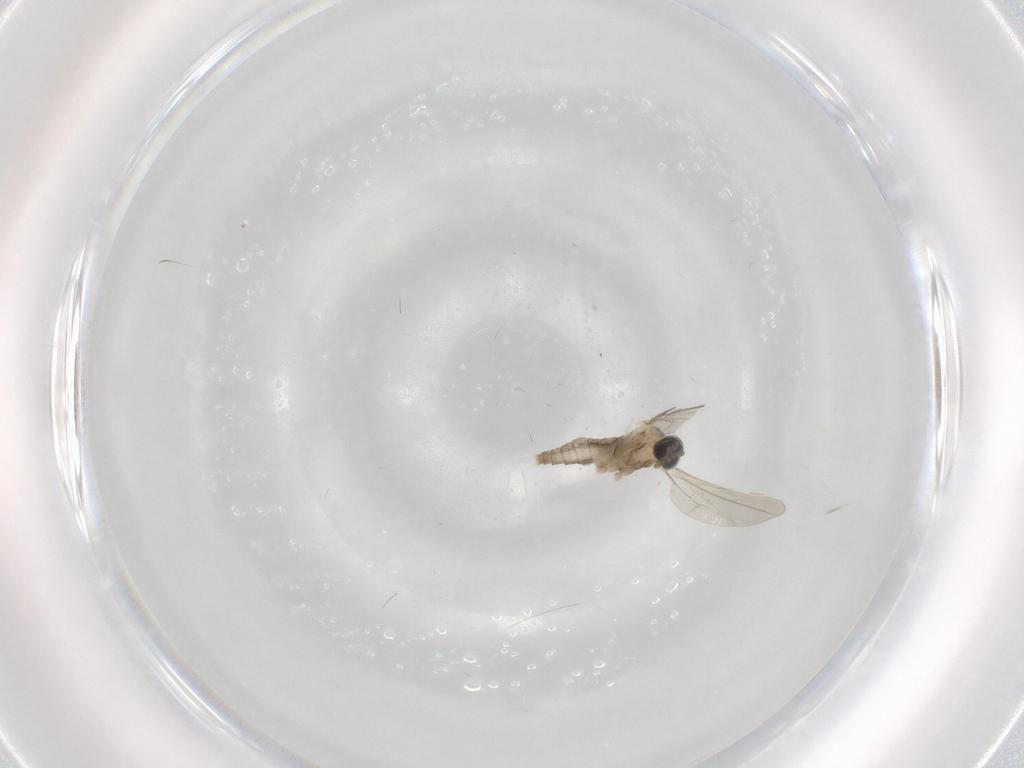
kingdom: Animalia
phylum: Arthropoda
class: Insecta
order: Diptera
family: Cecidomyiidae
